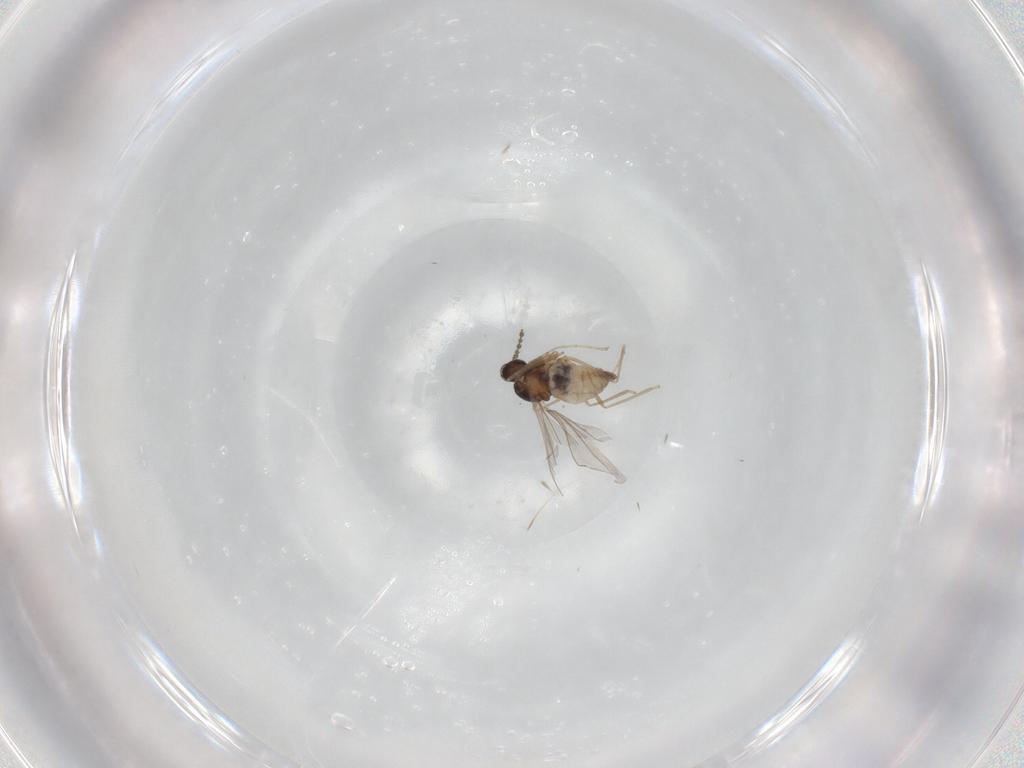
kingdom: Animalia
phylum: Arthropoda
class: Insecta
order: Diptera
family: Cecidomyiidae
